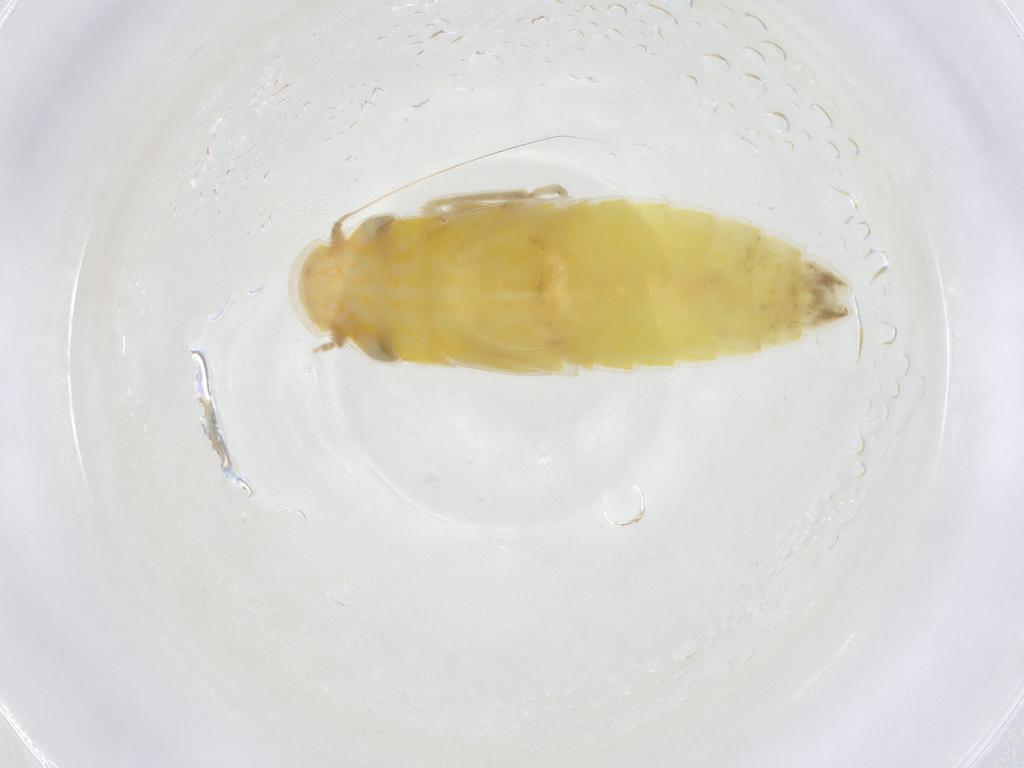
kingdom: Animalia
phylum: Arthropoda
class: Insecta
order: Hemiptera
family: Cicadellidae
